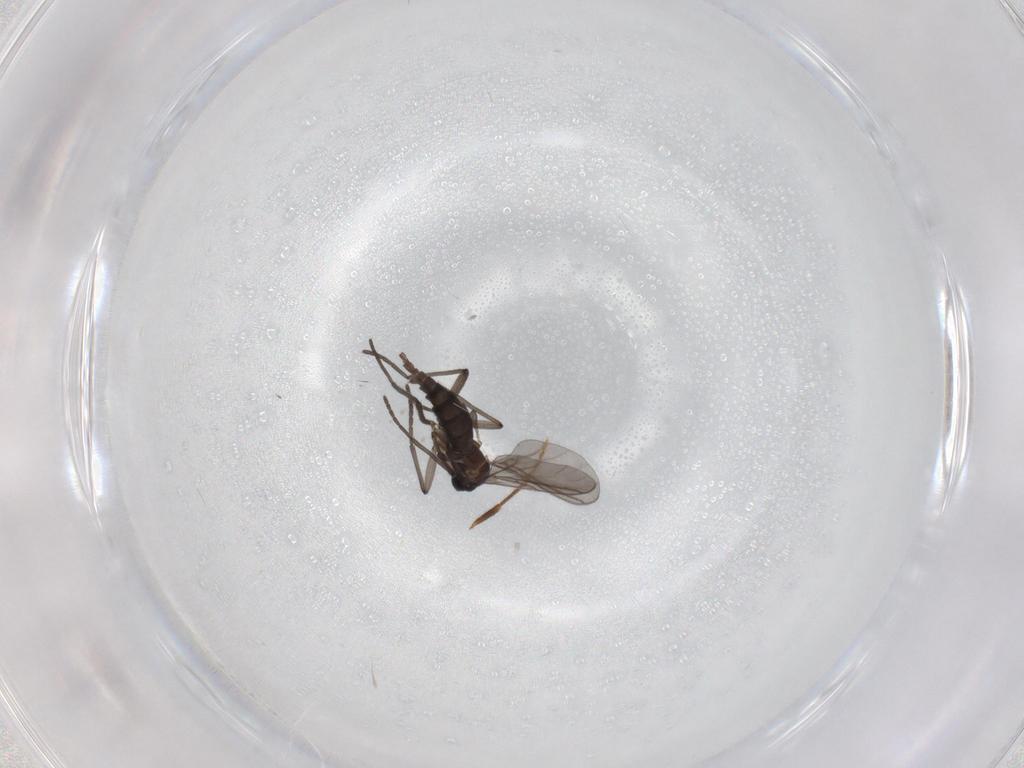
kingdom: Animalia
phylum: Arthropoda
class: Insecta
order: Diptera
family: Sciaridae
